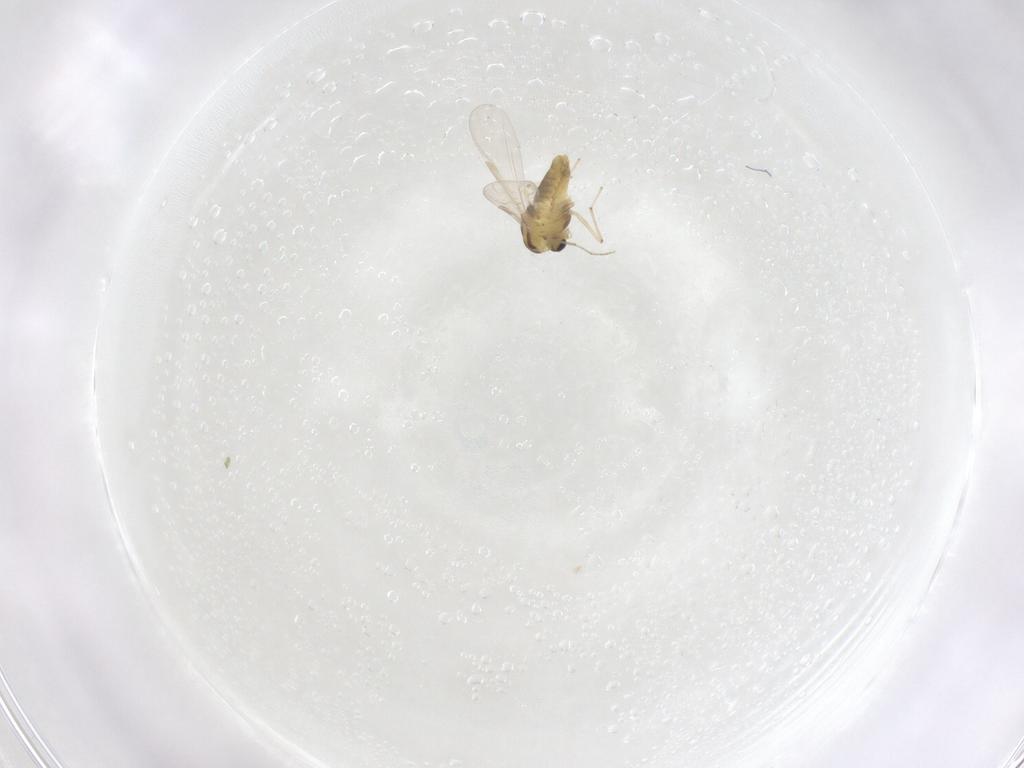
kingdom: Animalia
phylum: Arthropoda
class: Insecta
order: Diptera
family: Chironomidae
